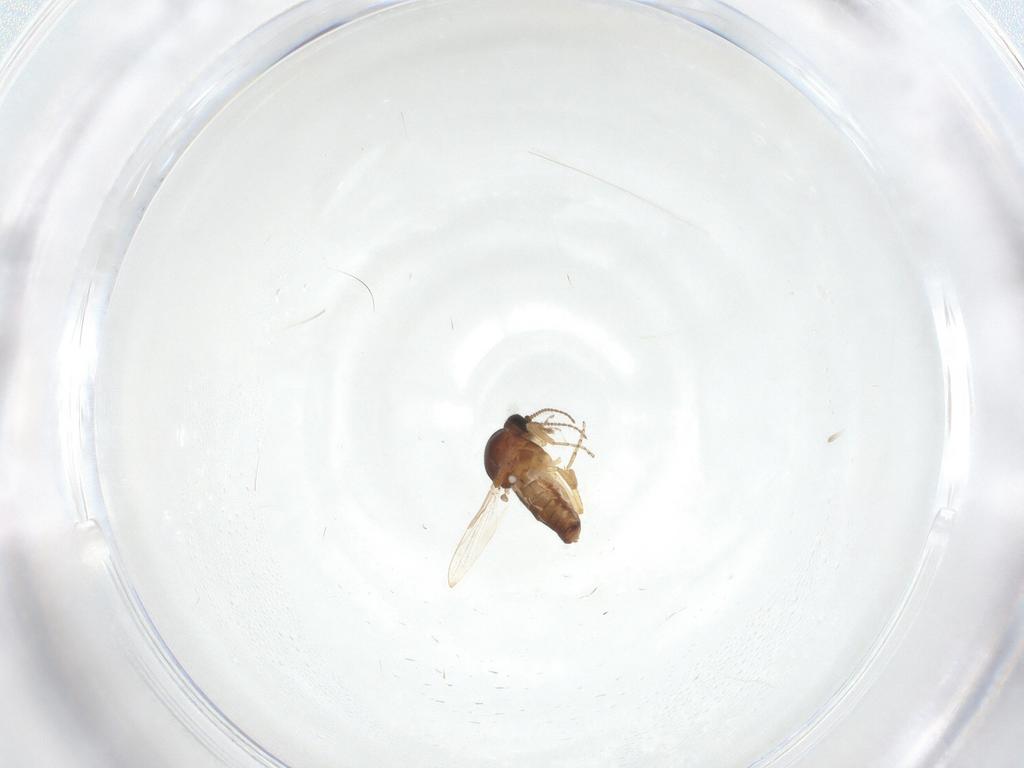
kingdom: Animalia
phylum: Arthropoda
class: Insecta
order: Diptera
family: Ceratopogonidae
